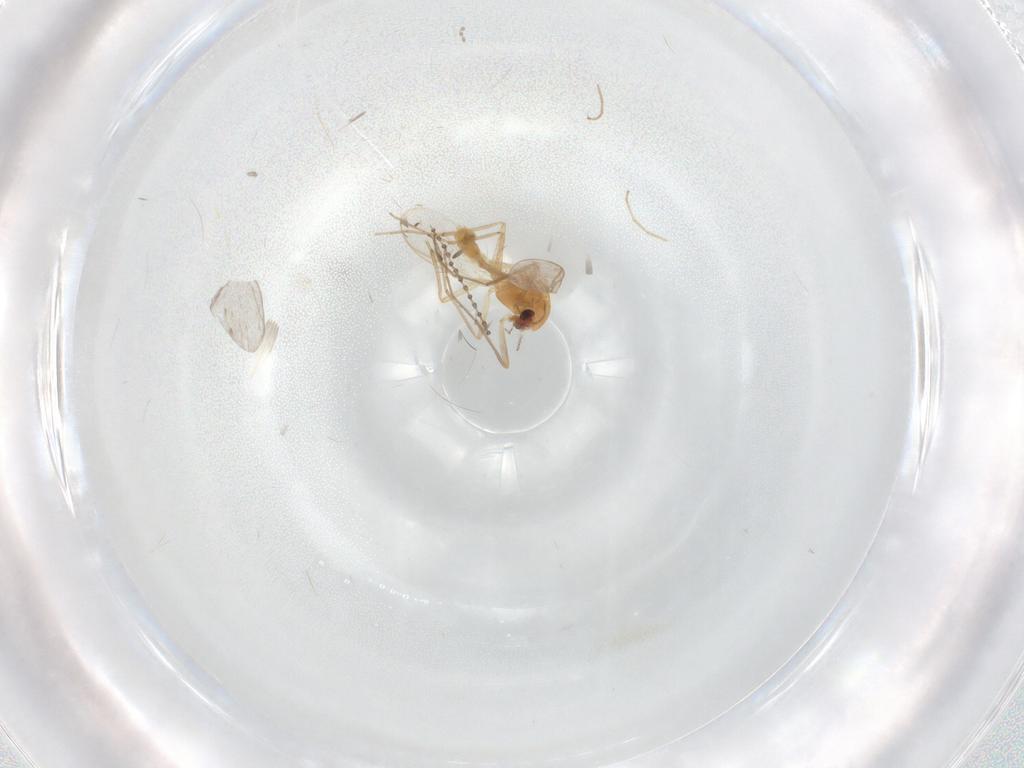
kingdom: Animalia
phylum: Arthropoda
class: Insecta
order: Diptera
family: Chironomidae
